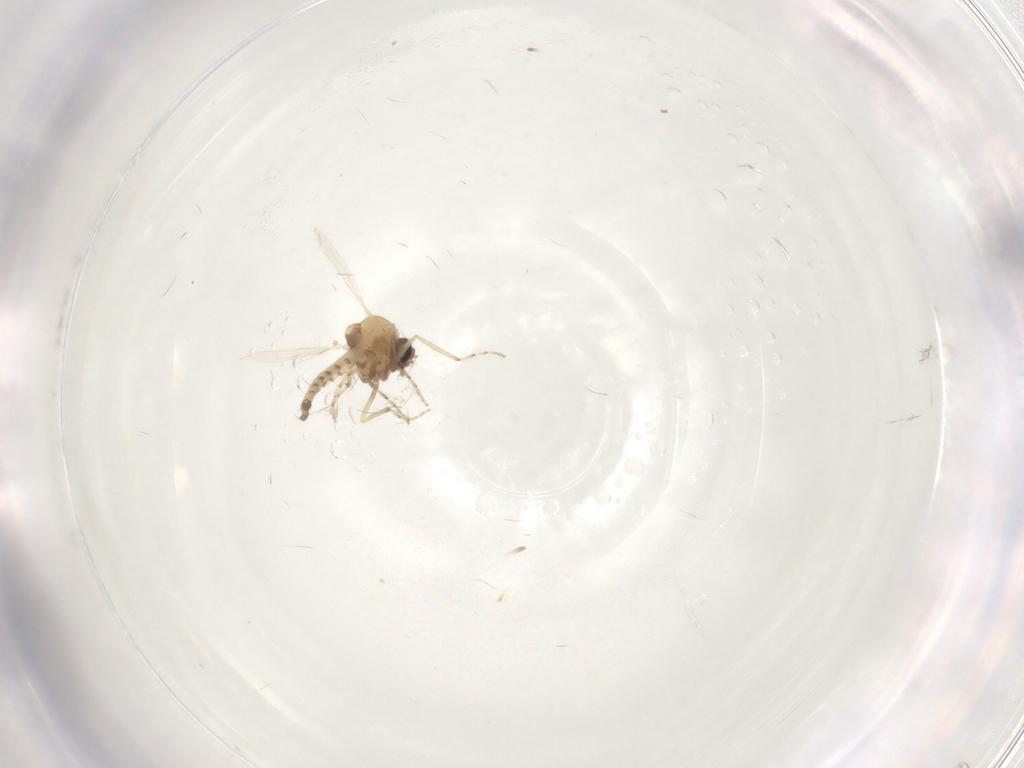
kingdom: Animalia
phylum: Arthropoda
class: Insecta
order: Diptera
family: Ceratopogonidae
